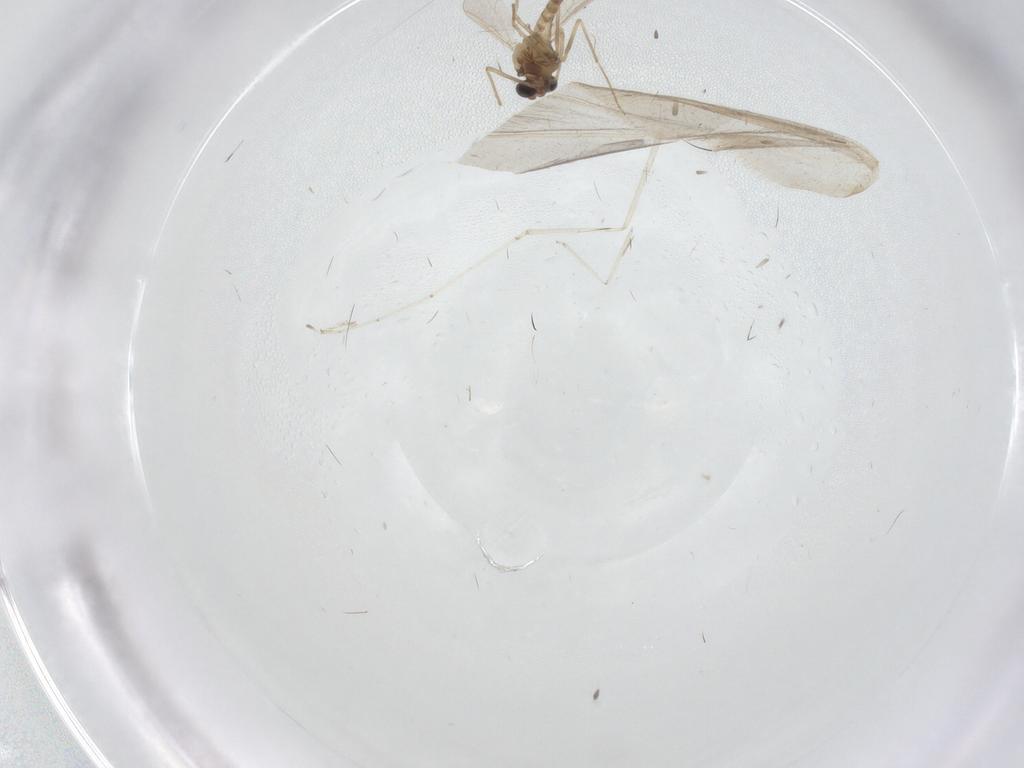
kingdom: Animalia
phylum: Arthropoda
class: Insecta
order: Diptera
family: Chironomidae
